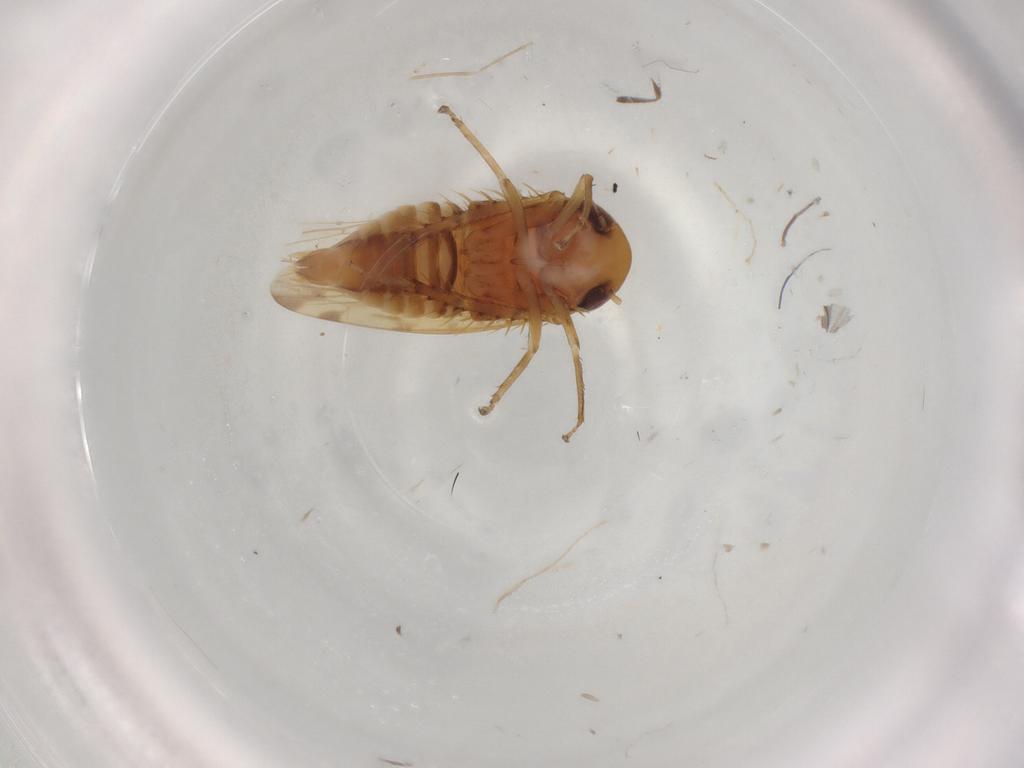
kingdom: Animalia
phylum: Arthropoda
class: Insecta
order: Hemiptera
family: Cicadellidae
